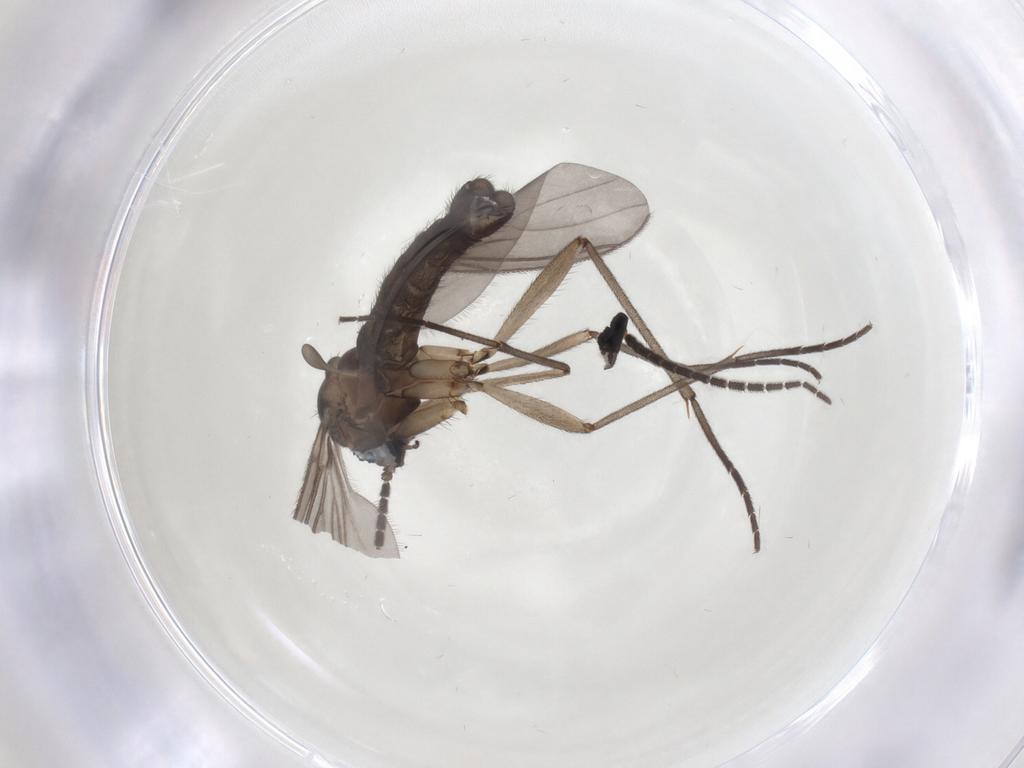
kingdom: Animalia
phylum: Arthropoda
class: Insecta
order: Diptera
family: Sciaridae
